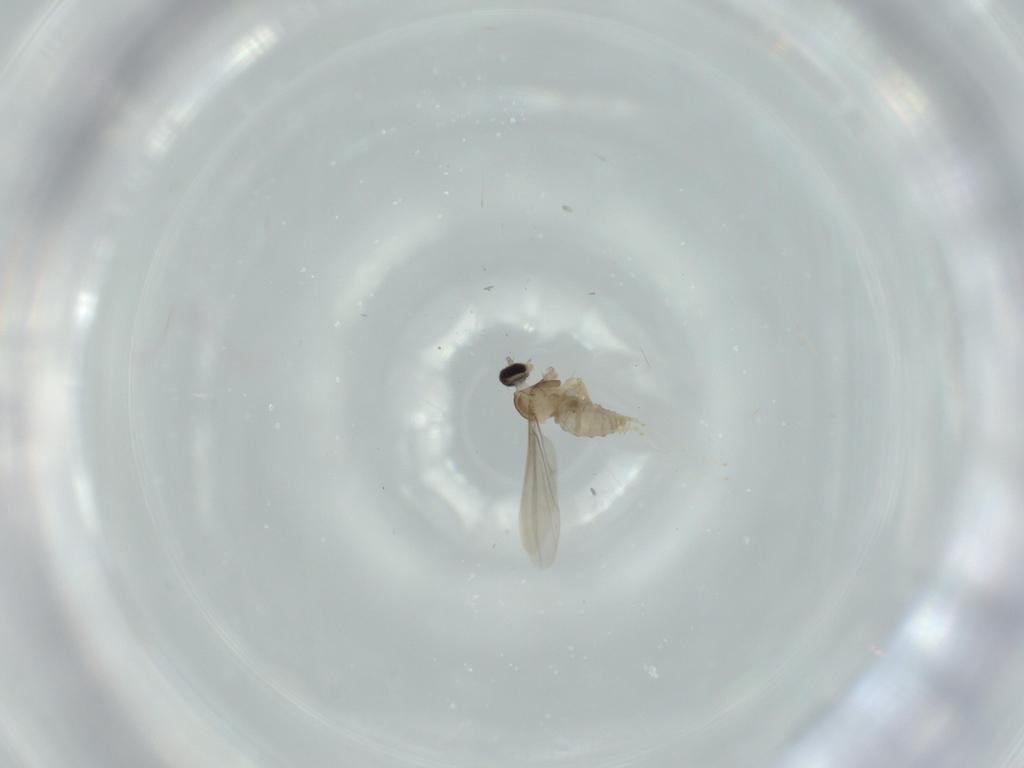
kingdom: Animalia
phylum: Arthropoda
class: Insecta
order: Diptera
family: Cecidomyiidae
